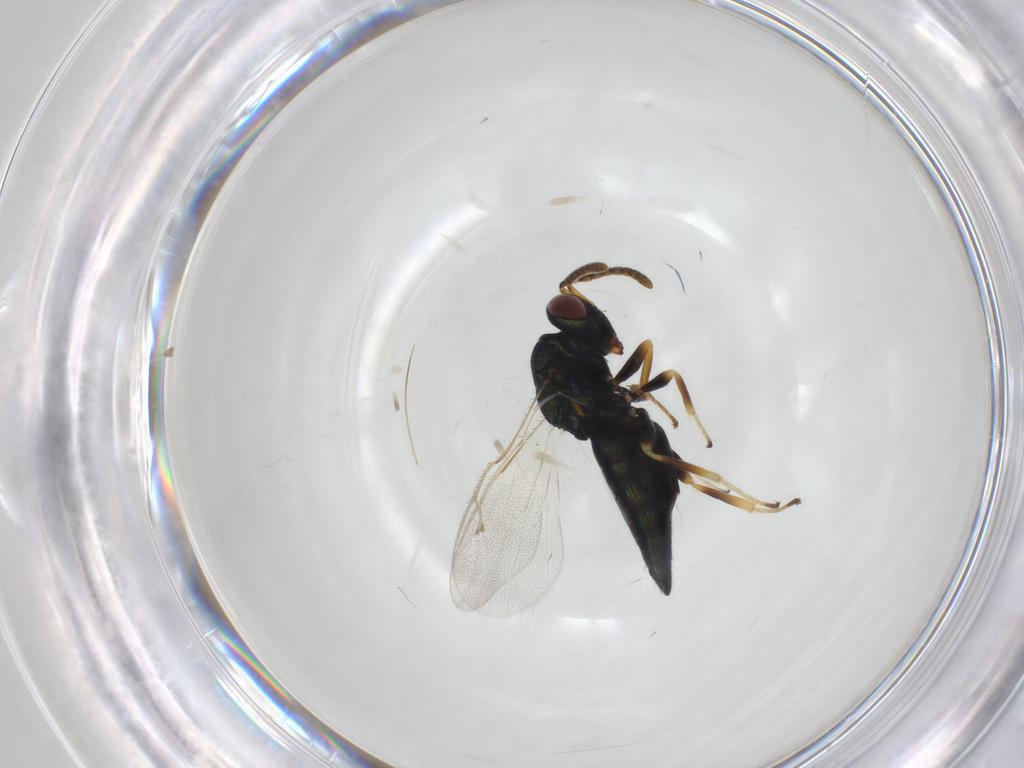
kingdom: Animalia
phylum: Arthropoda
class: Insecta
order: Hymenoptera
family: Pteromalidae
